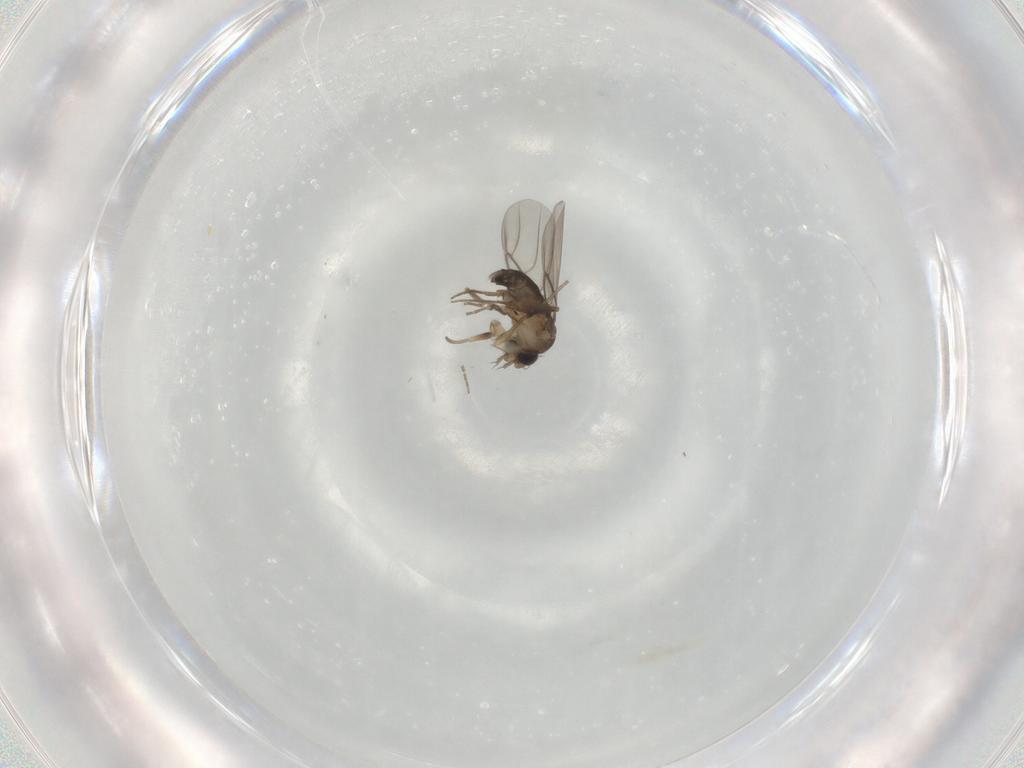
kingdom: Animalia
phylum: Arthropoda
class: Insecta
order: Diptera
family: Phoridae
